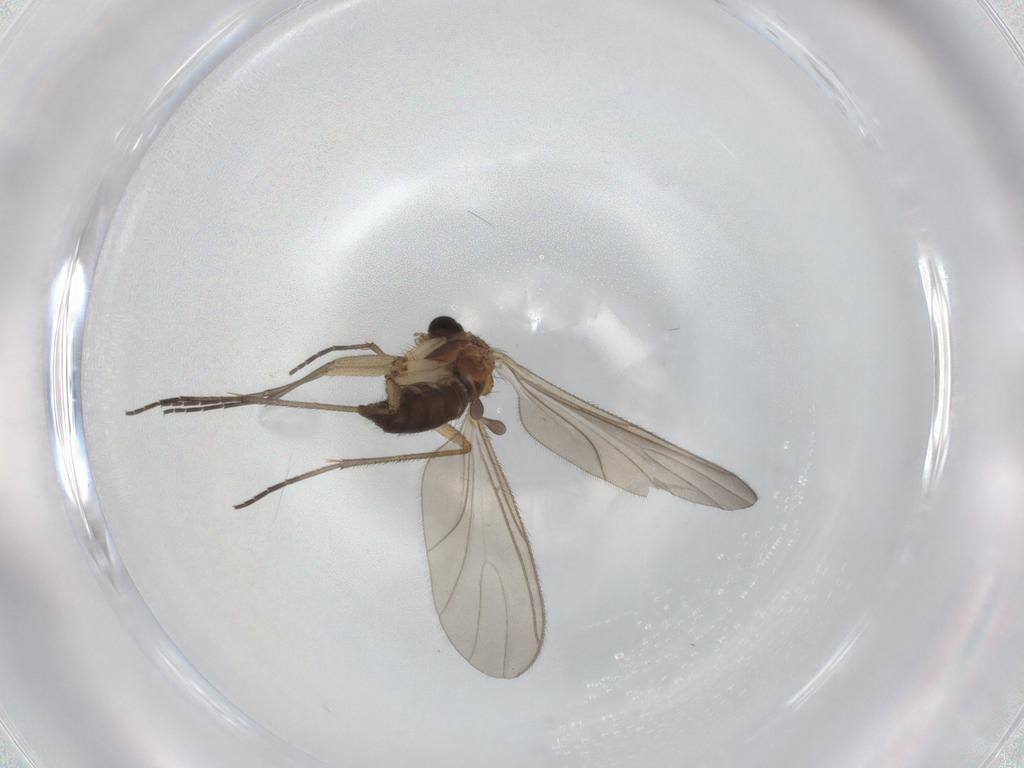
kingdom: Animalia
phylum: Arthropoda
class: Insecta
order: Diptera
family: Sciaridae
